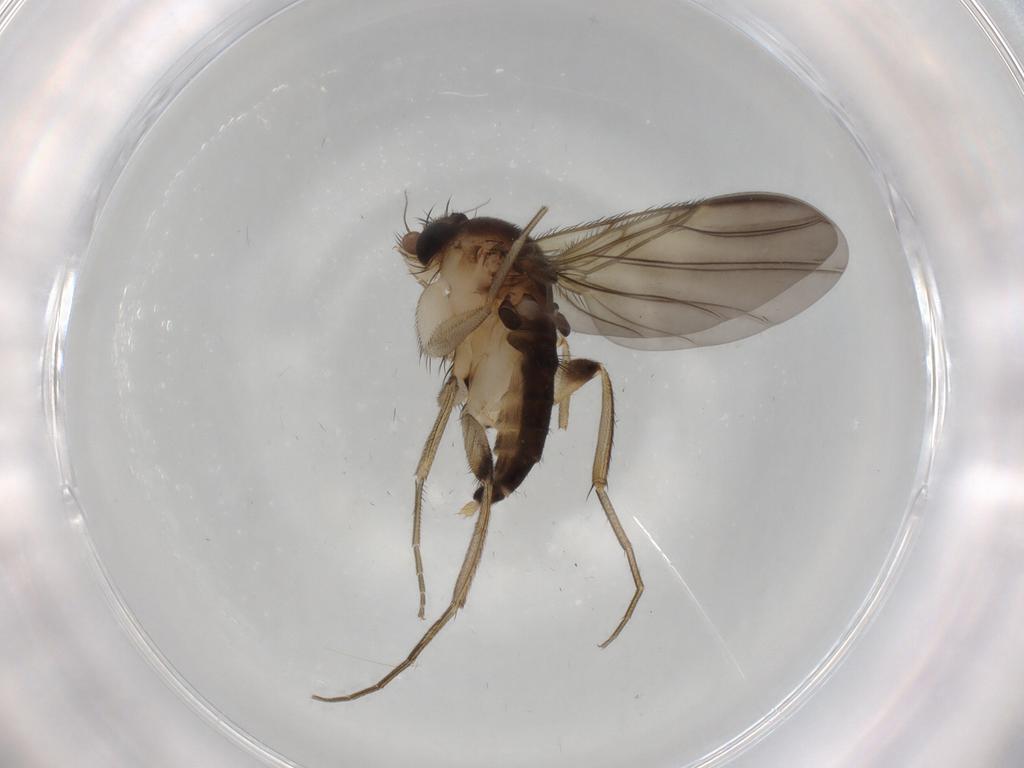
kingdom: Animalia
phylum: Arthropoda
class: Insecta
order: Diptera
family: Phoridae
